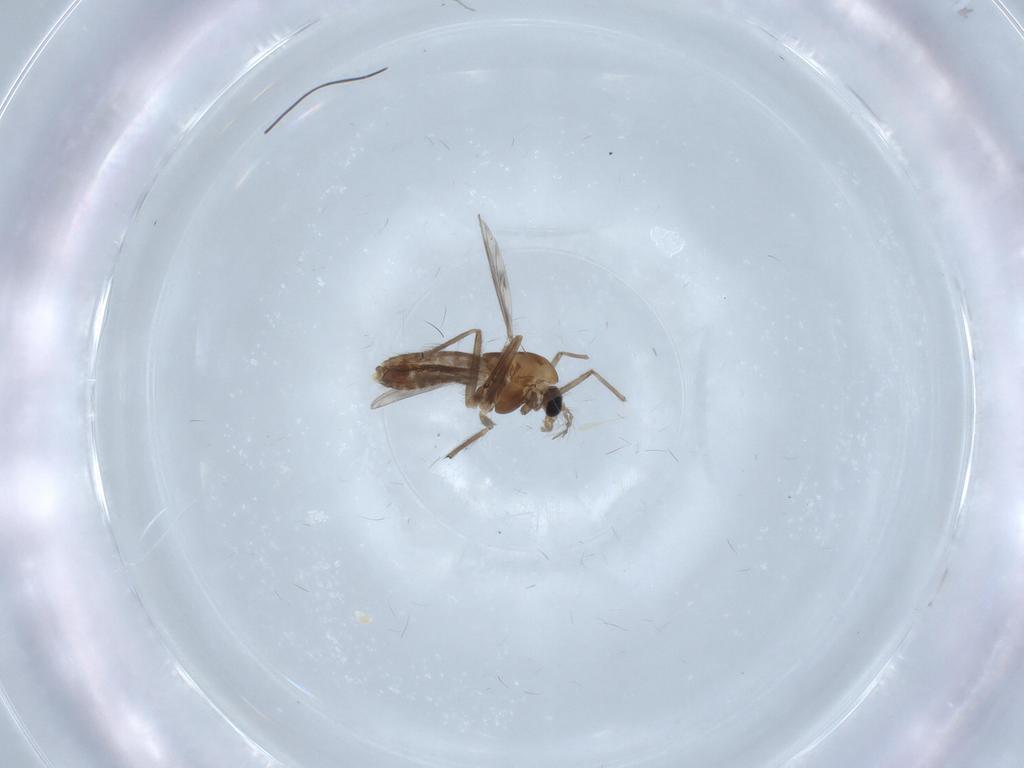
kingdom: Animalia
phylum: Arthropoda
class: Insecta
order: Diptera
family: Chironomidae
